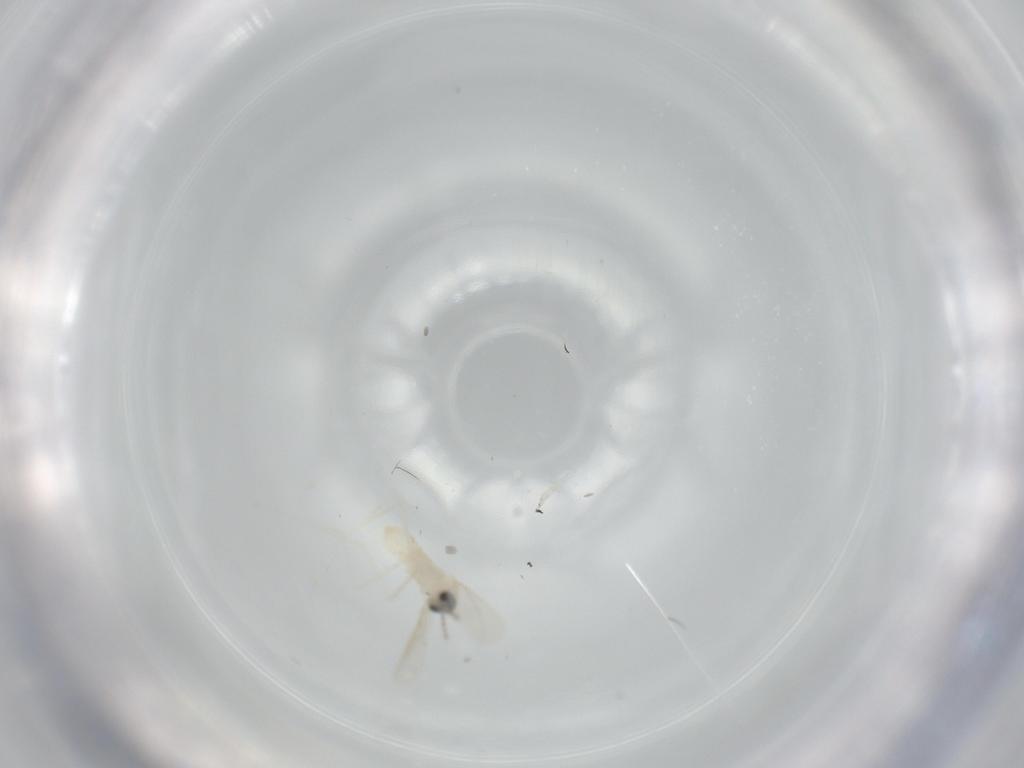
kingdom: Animalia
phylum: Arthropoda
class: Insecta
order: Diptera
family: Cecidomyiidae
